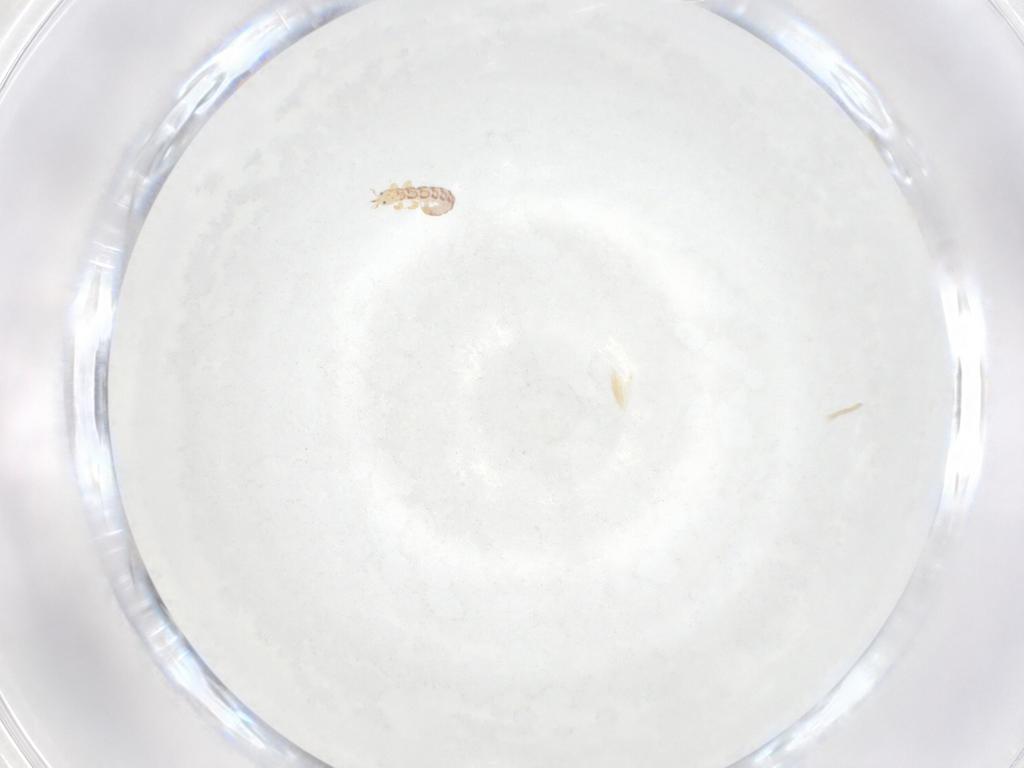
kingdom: Animalia
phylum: Arthropoda
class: Insecta
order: Neuroptera
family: Mantispidae
